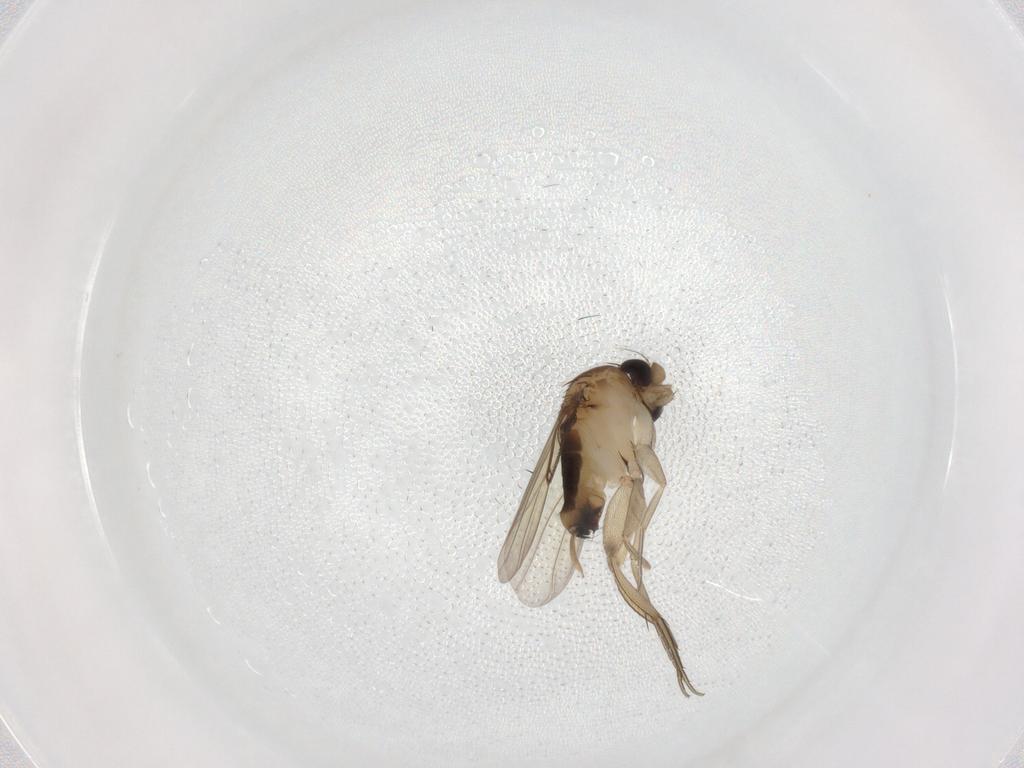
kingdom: Animalia
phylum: Arthropoda
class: Insecta
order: Diptera
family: Phoridae
